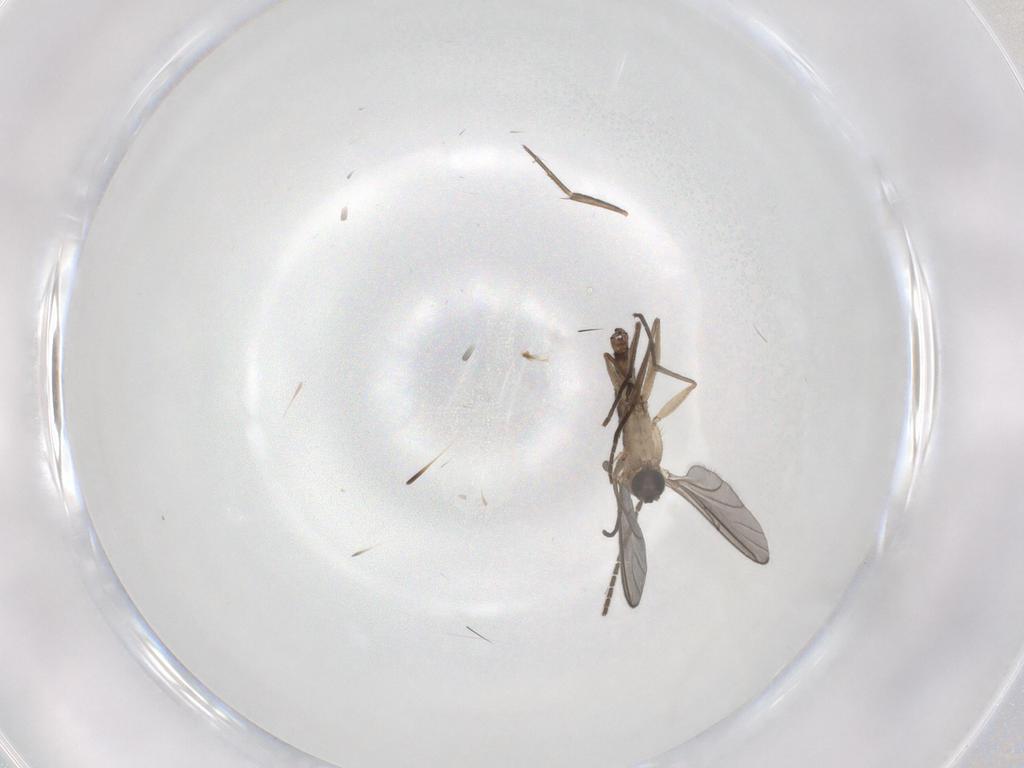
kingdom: Animalia
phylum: Arthropoda
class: Insecta
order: Diptera
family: Sciaridae
